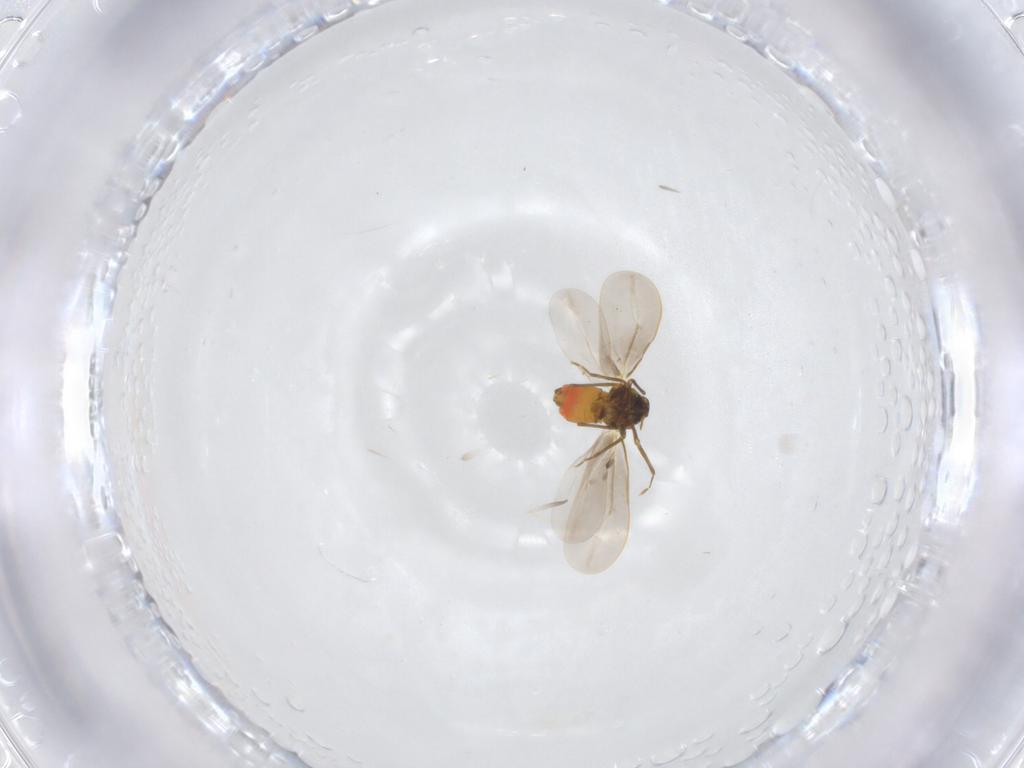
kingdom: Animalia
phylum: Arthropoda
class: Insecta
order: Hemiptera
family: Aleyrodidae
